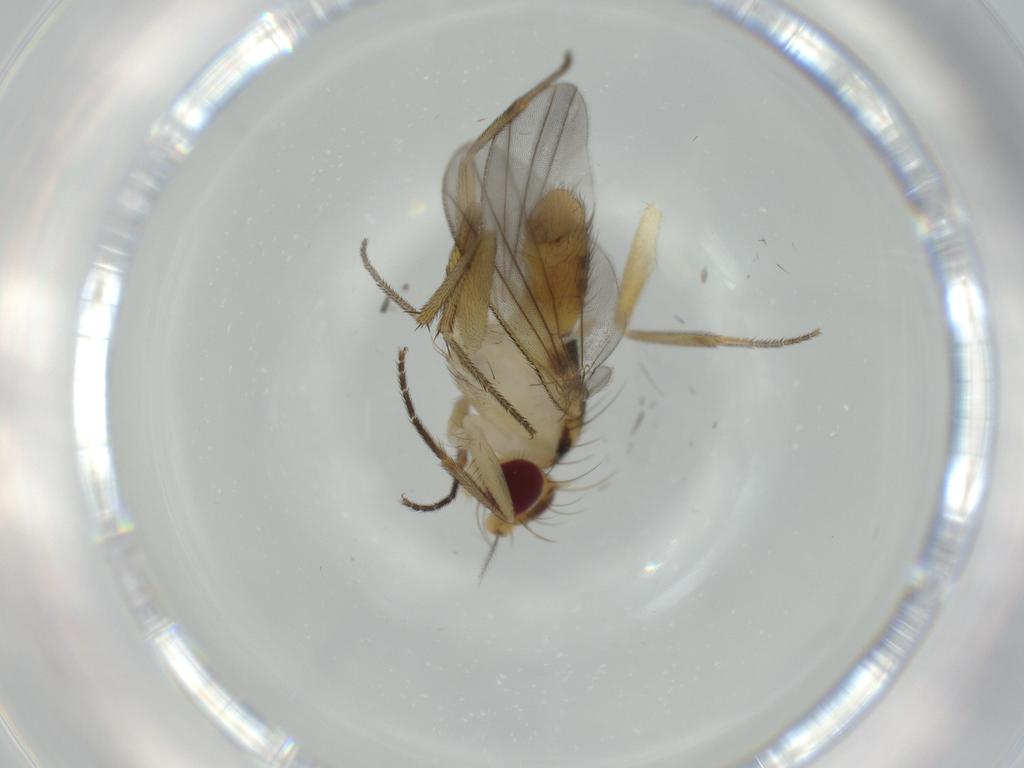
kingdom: Animalia
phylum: Arthropoda
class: Insecta
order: Diptera
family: Clusiidae
